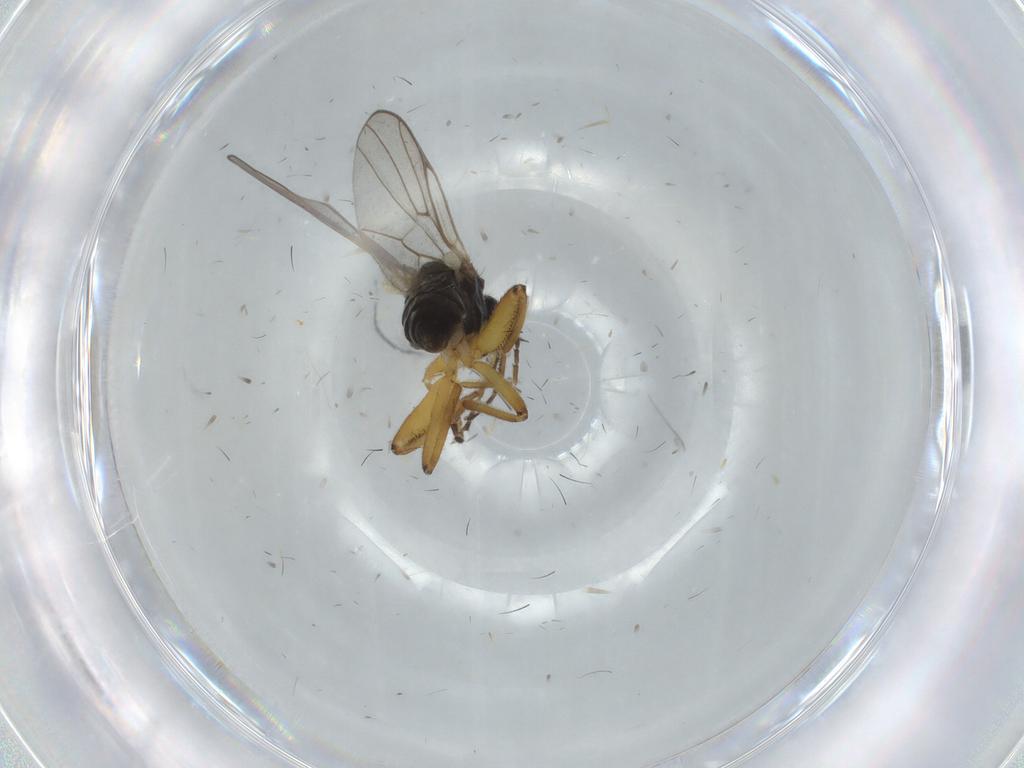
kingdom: Animalia
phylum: Arthropoda
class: Insecta
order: Diptera
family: Hybotidae
